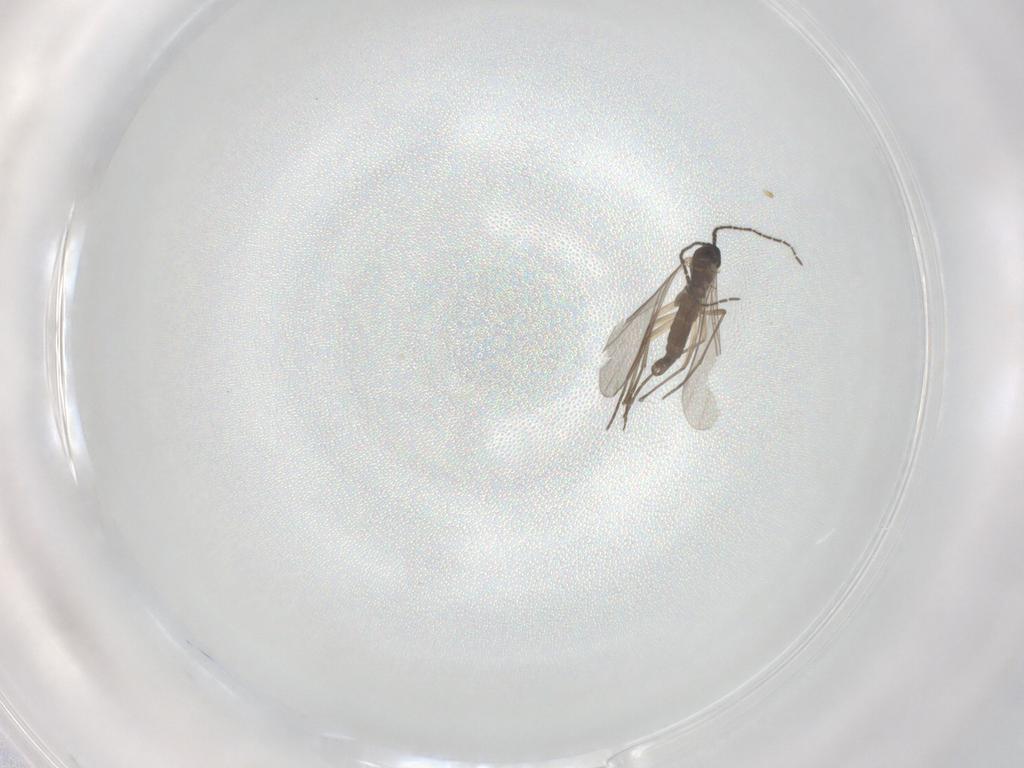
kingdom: Animalia
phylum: Arthropoda
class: Insecta
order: Diptera
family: Sciaridae
